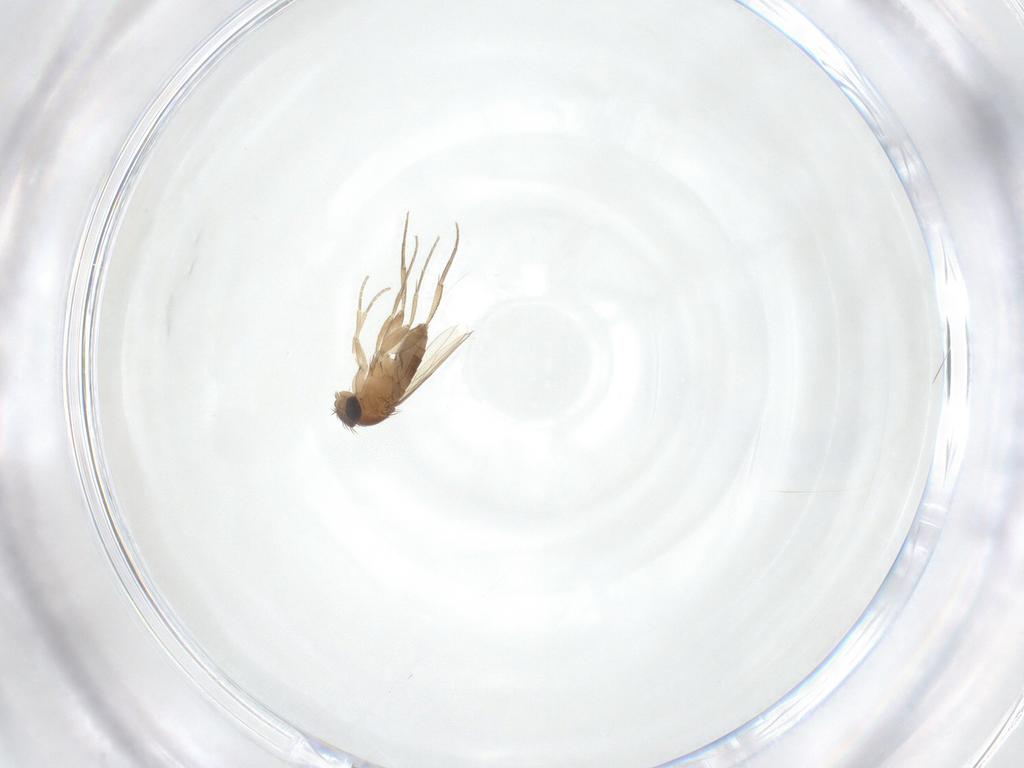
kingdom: Animalia
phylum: Arthropoda
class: Insecta
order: Diptera
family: Phoridae
